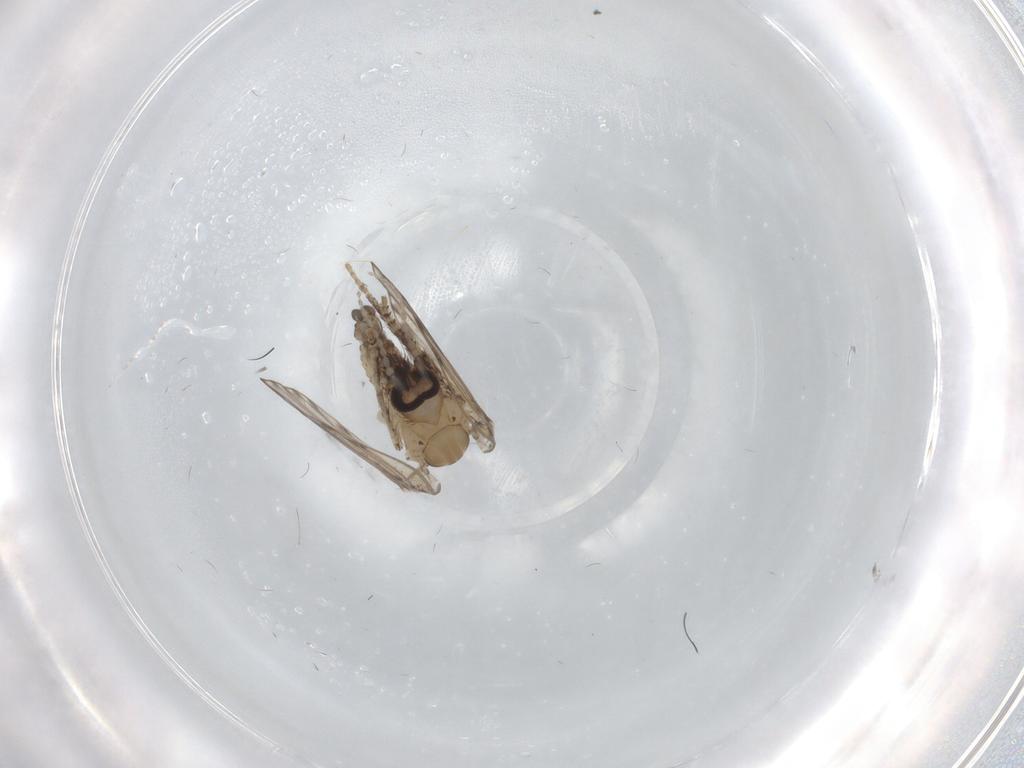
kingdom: Animalia
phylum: Arthropoda
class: Insecta
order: Diptera
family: Psychodidae
